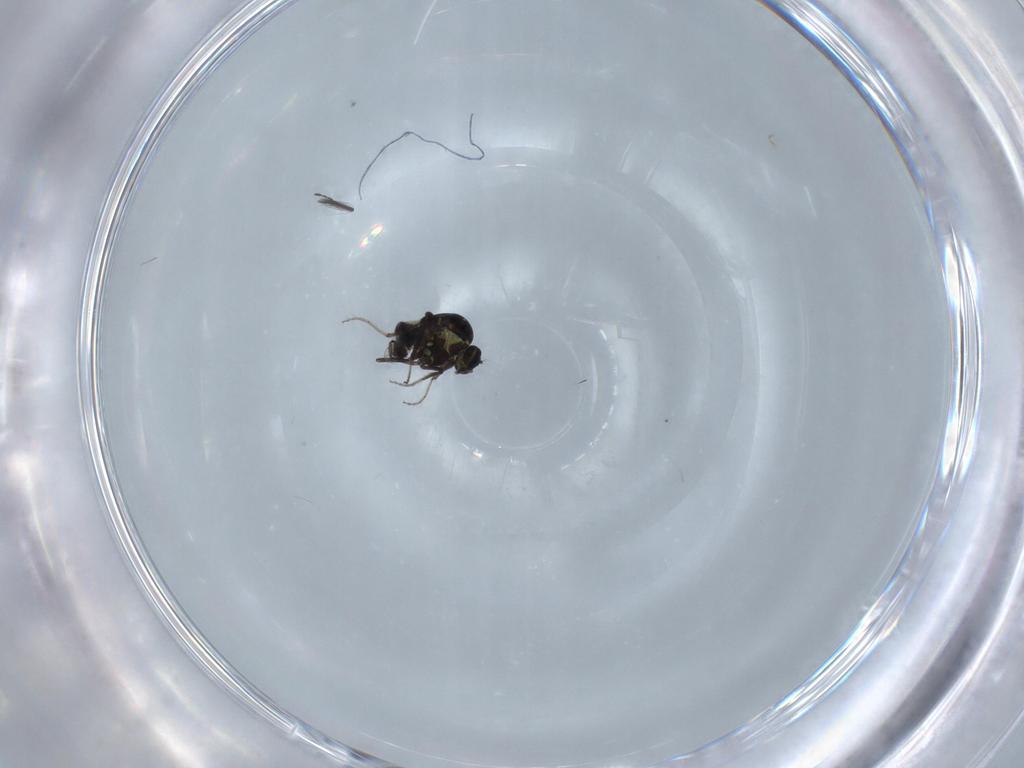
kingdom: Animalia
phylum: Arthropoda
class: Insecta
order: Diptera
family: Ceratopogonidae
